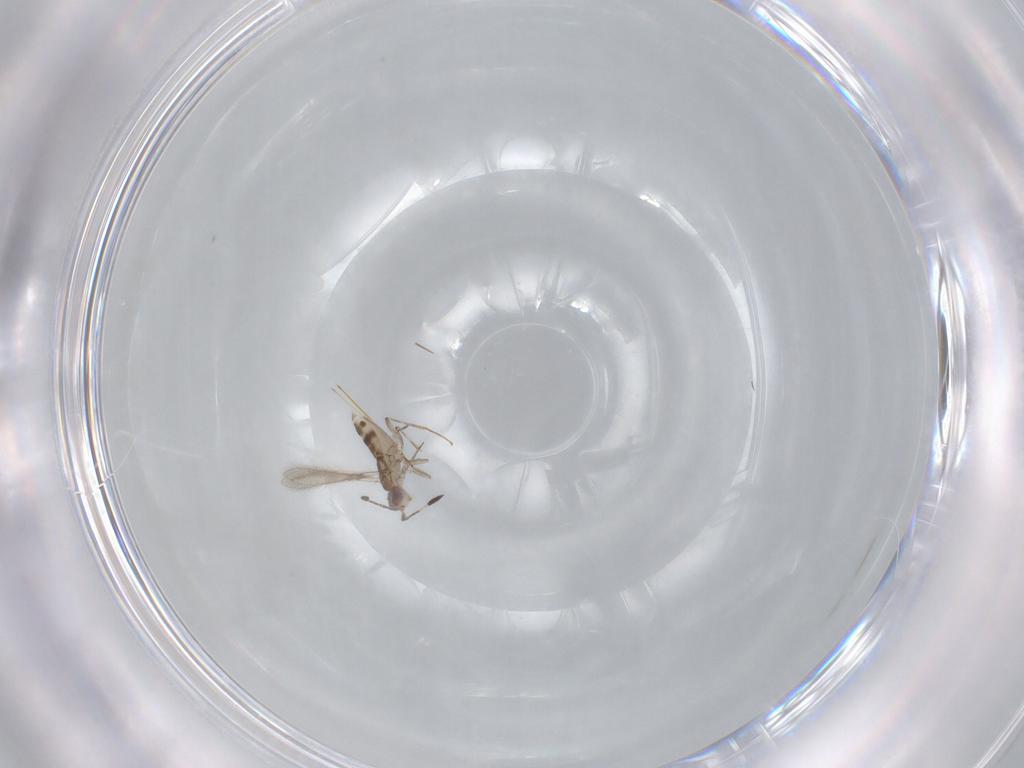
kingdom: Animalia
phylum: Arthropoda
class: Insecta
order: Hymenoptera
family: Mymaridae
